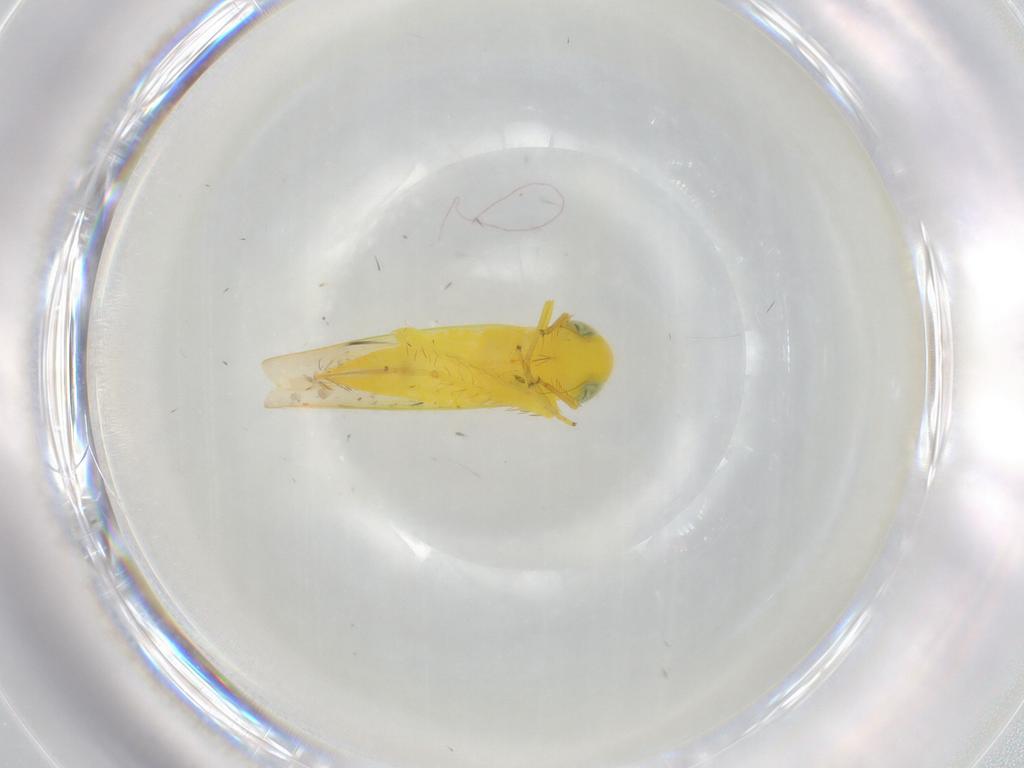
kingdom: Animalia
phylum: Arthropoda
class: Insecta
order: Hemiptera
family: Cicadellidae
